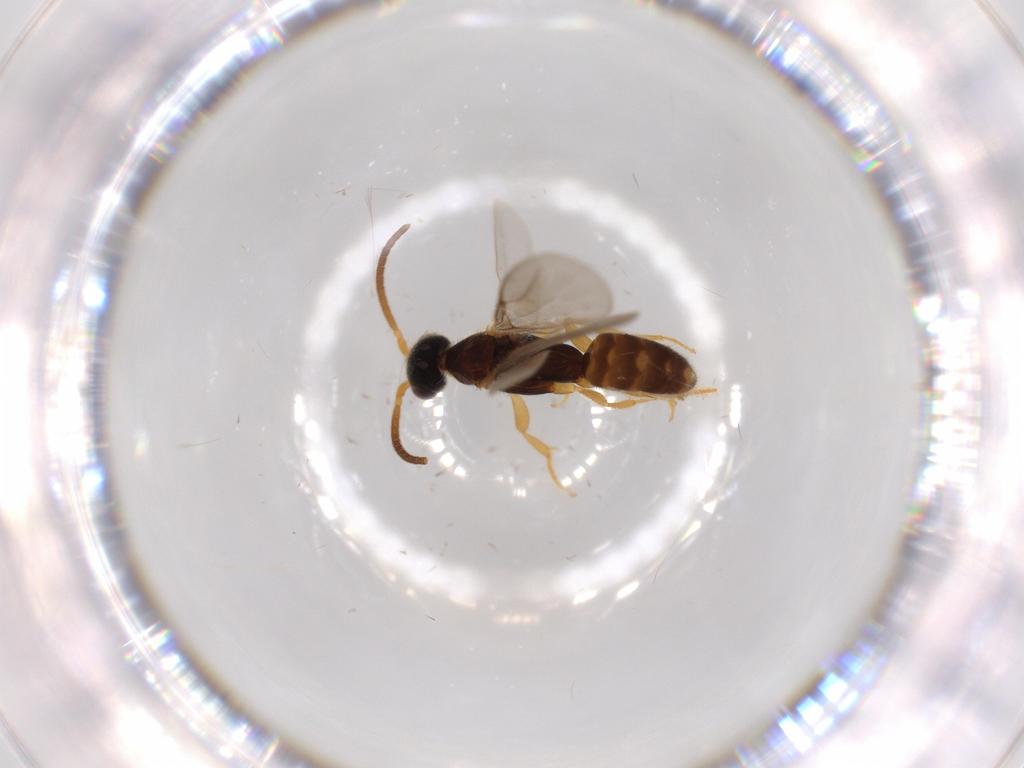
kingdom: Animalia
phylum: Arthropoda
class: Insecta
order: Hymenoptera
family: Bethylidae
